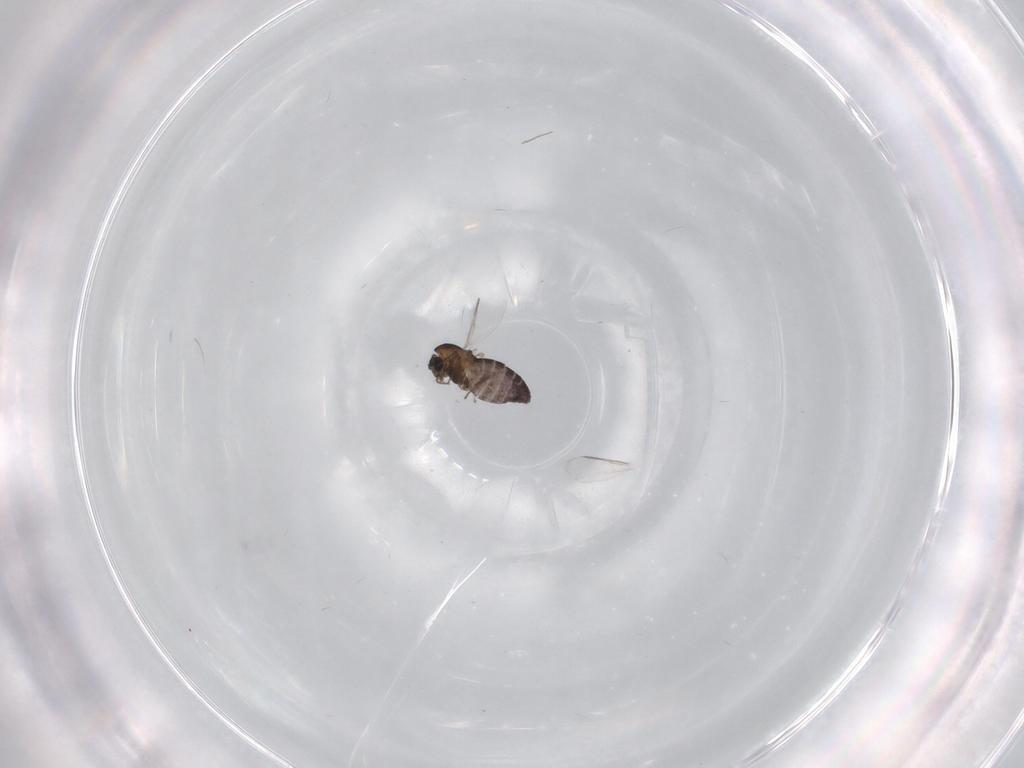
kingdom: Animalia
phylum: Arthropoda
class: Insecta
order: Diptera
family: Chironomidae
